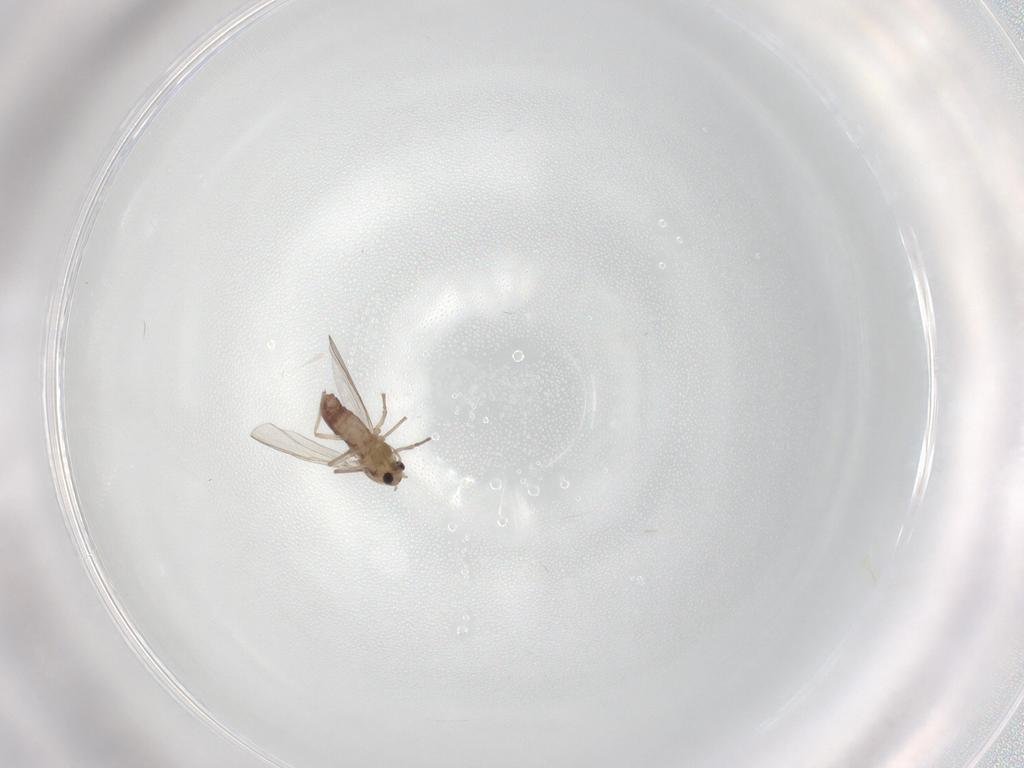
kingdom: Animalia
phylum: Arthropoda
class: Insecta
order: Diptera
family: Chironomidae
